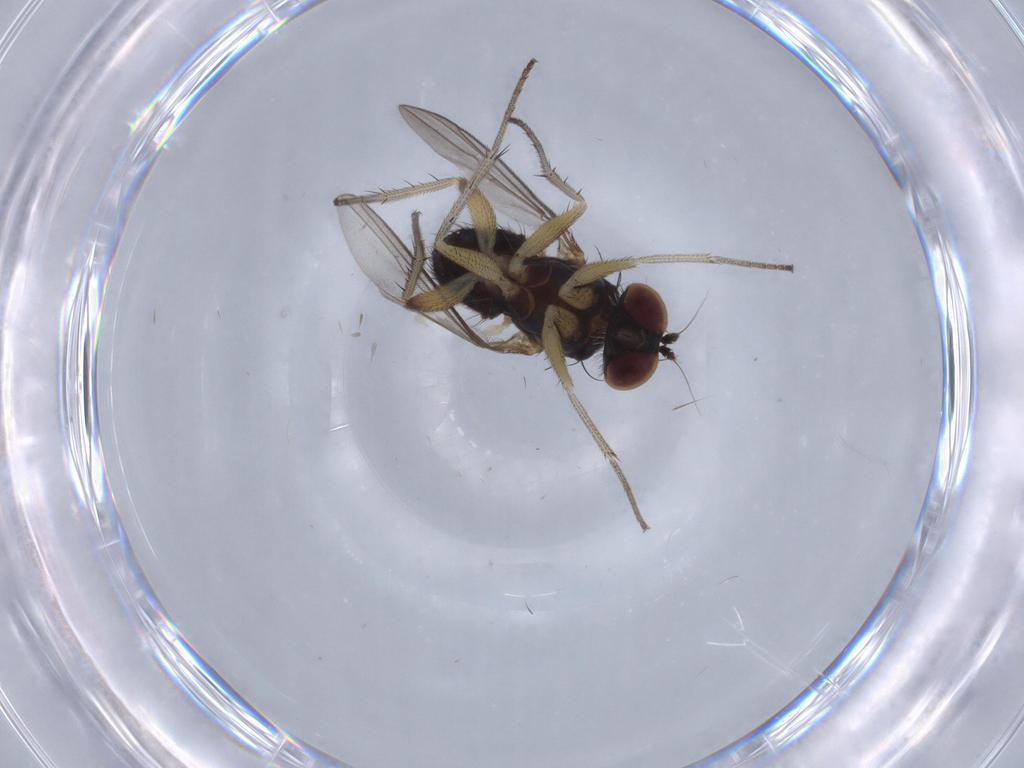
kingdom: Animalia
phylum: Arthropoda
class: Insecta
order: Diptera
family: Dolichopodidae
